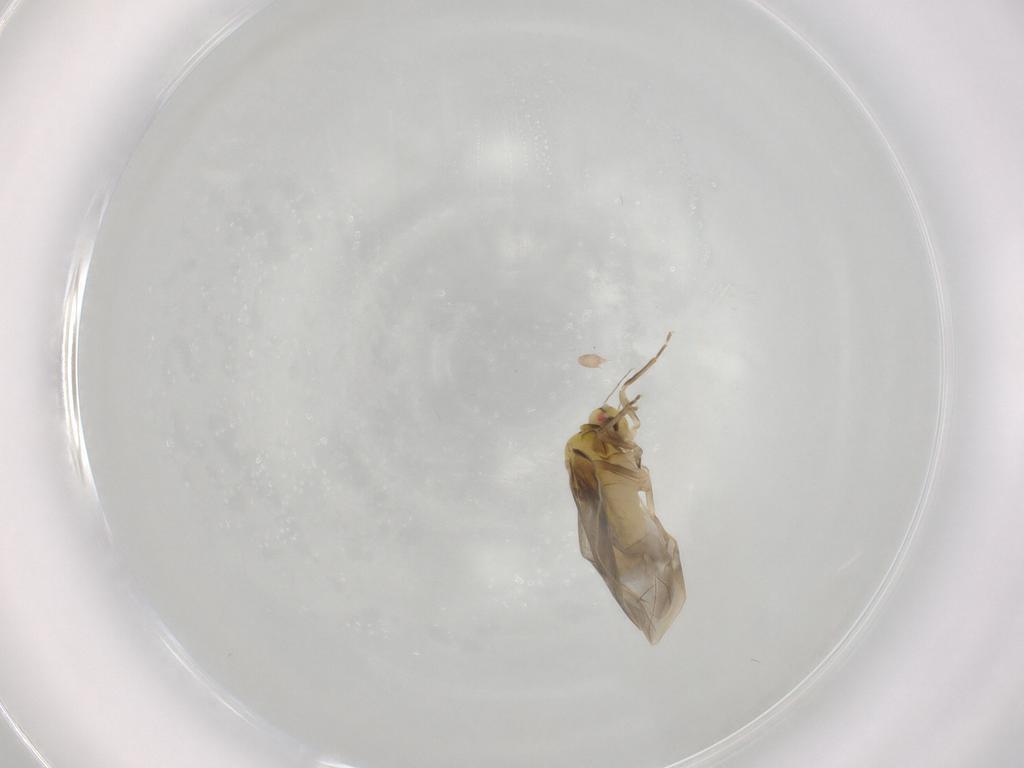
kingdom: Animalia
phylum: Arthropoda
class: Insecta
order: Hemiptera
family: Aleyrodidae
